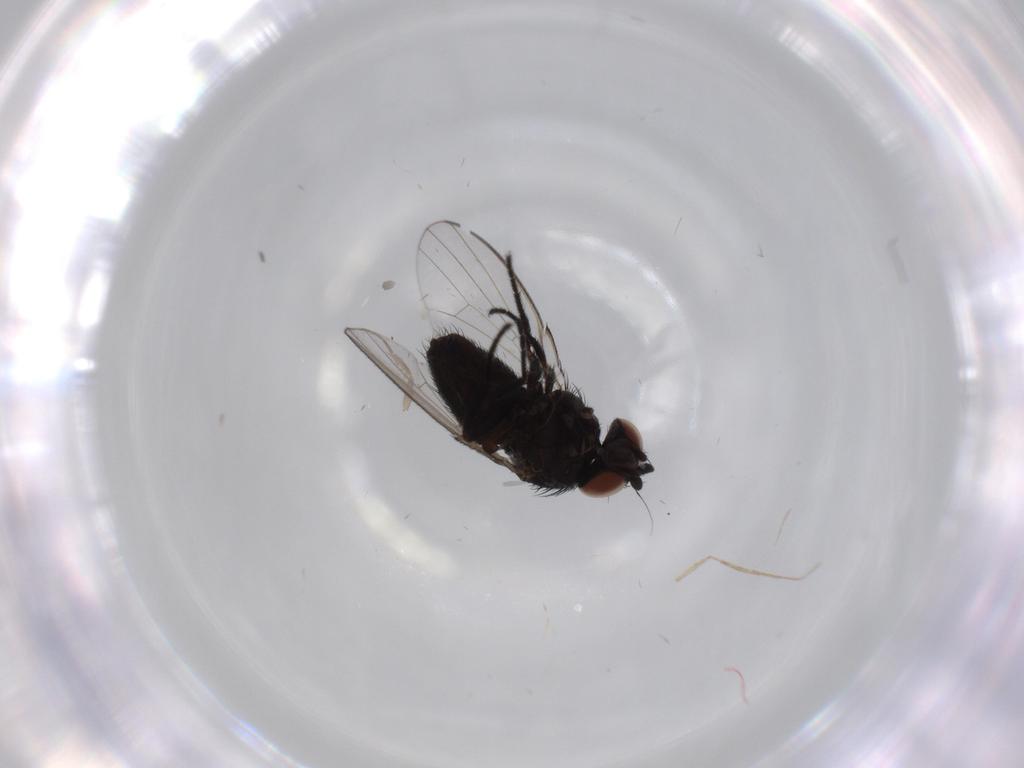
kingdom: Animalia
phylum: Arthropoda
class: Insecta
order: Diptera
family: Milichiidae
